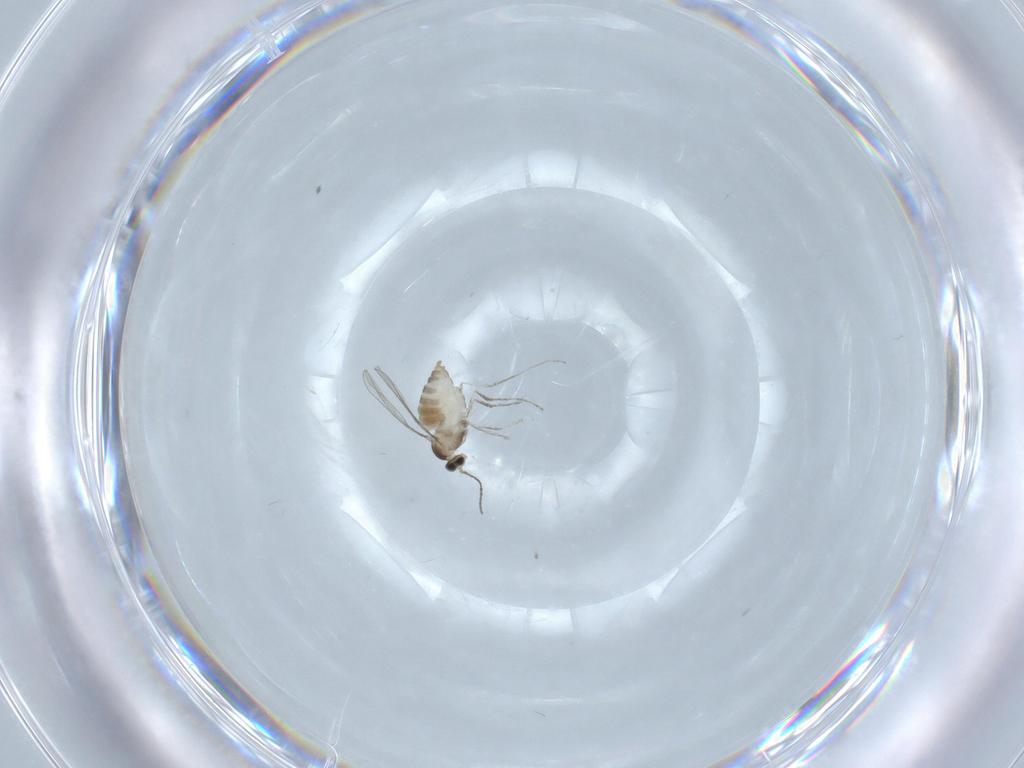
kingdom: Animalia
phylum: Arthropoda
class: Insecta
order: Diptera
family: Cecidomyiidae
